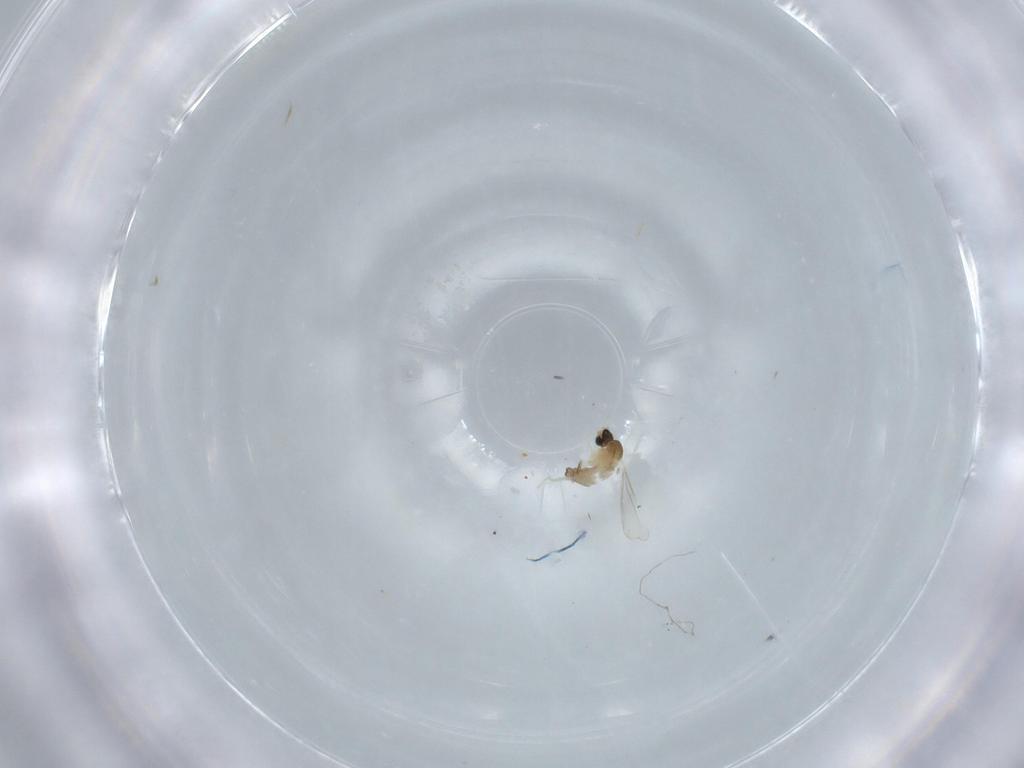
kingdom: Animalia
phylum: Arthropoda
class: Insecta
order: Diptera
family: Cecidomyiidae
